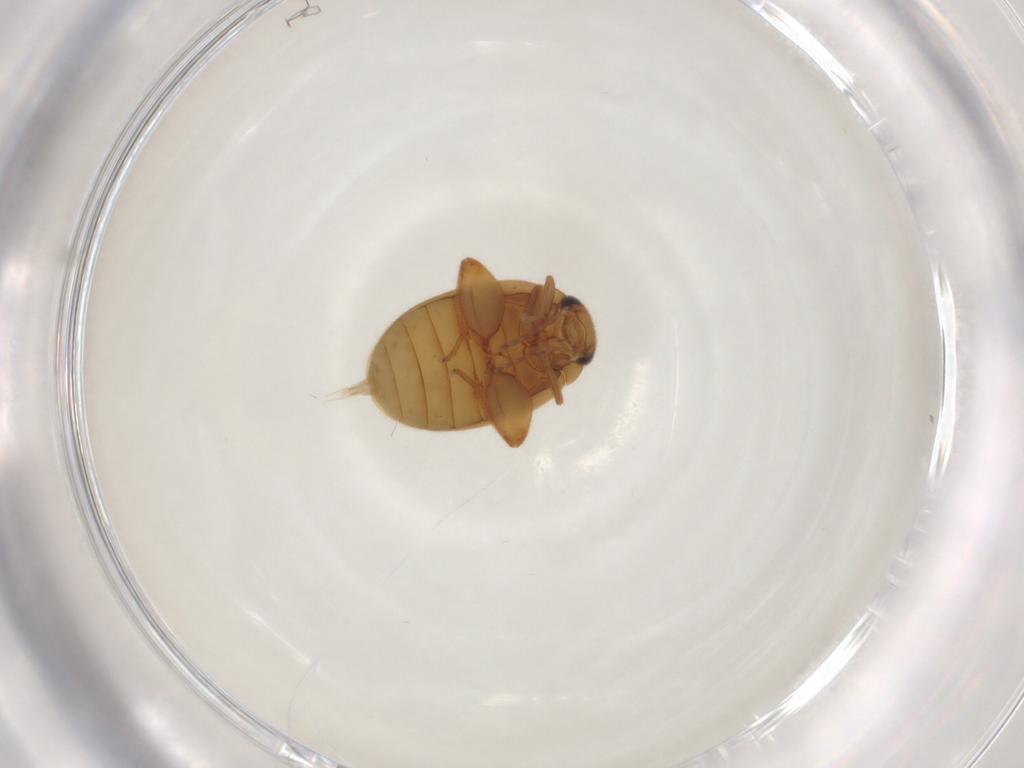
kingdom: Animalia
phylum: Arthropoda
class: Insecta
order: Coleoptera
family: Scirtidae
